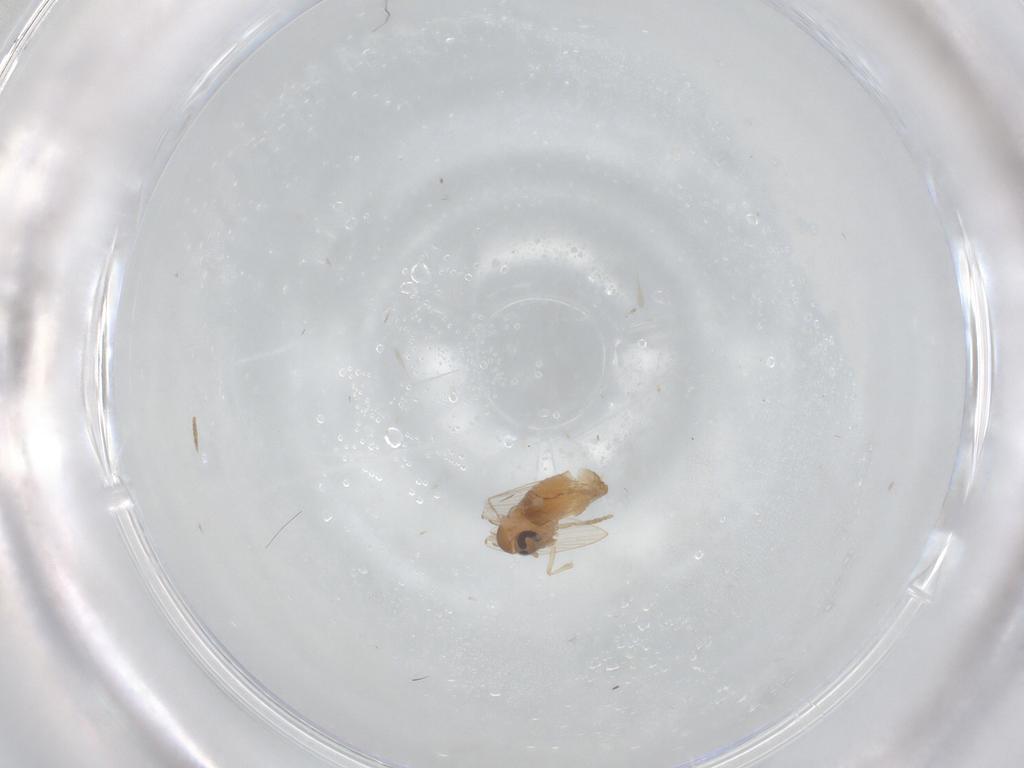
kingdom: Animalia
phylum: Arthropoda
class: Insecta
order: Diptera
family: Cecidomyiidae
